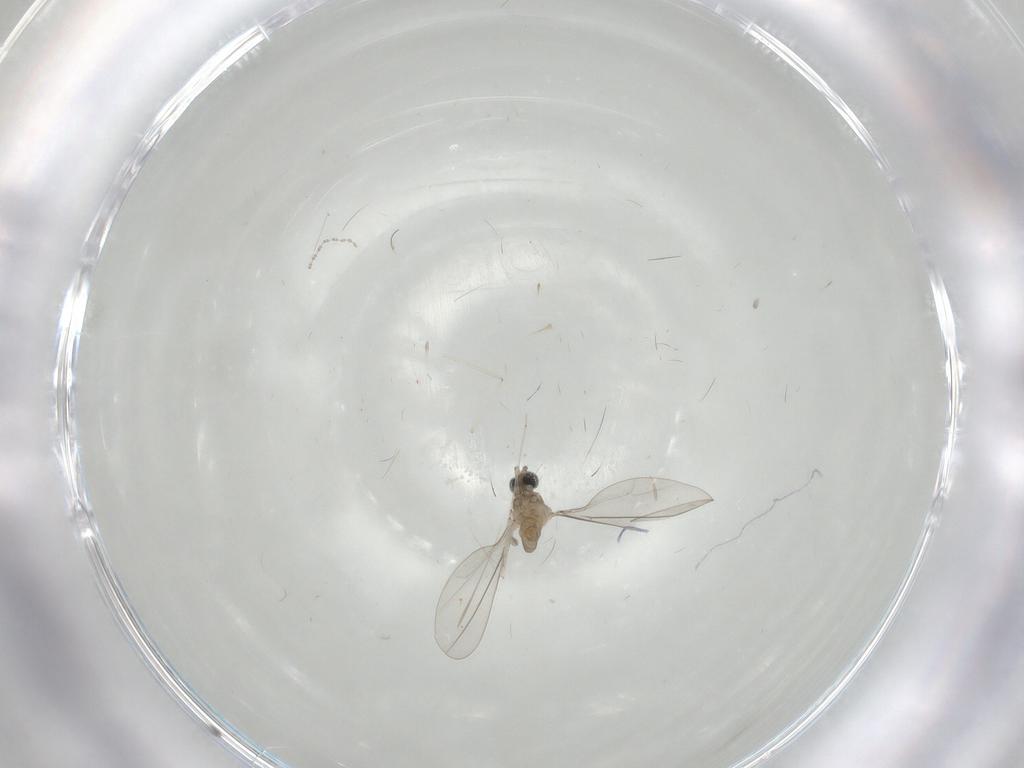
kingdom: Animalia
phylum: Arthropoda
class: Insecta
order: Diptera
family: Cecidomyiidae
